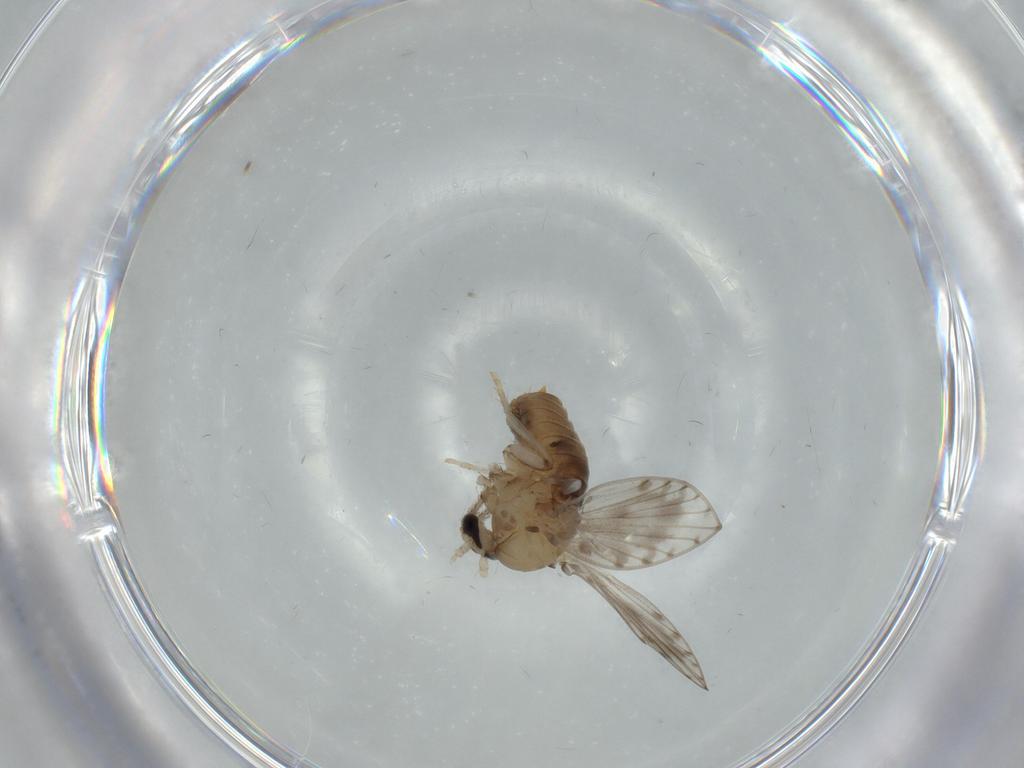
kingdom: Animalia
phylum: Arthropoda
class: Insecta
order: Diptera
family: Psychodidae
